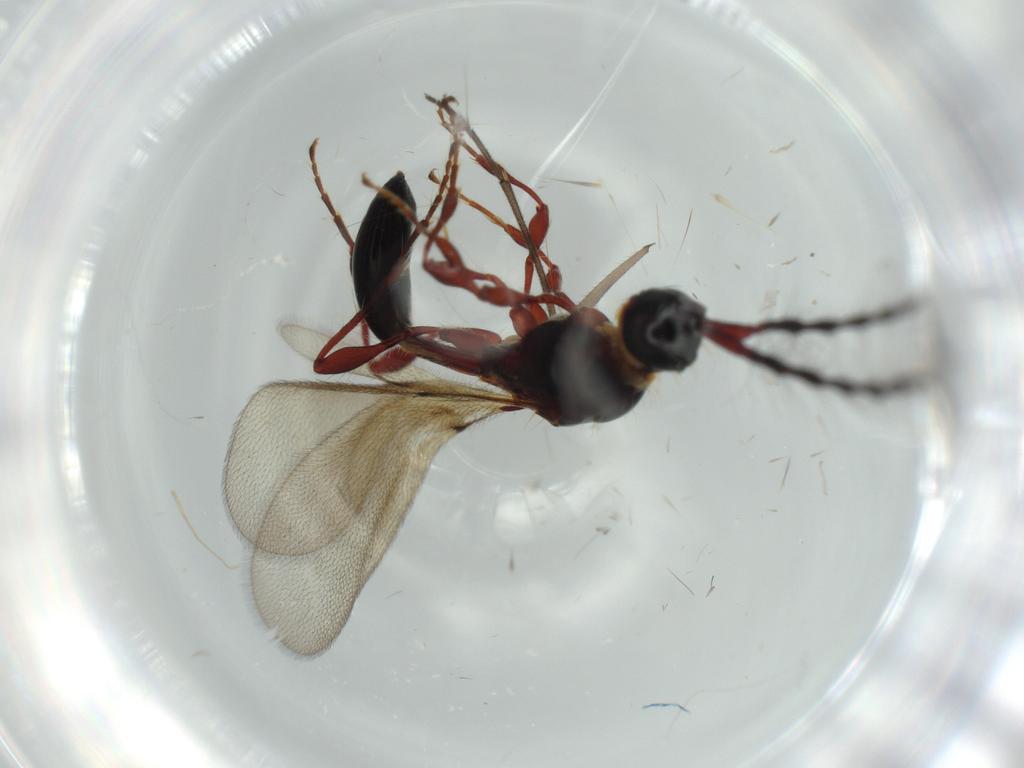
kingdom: Animalia
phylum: Arthropoda
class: Insecta
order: Hymenoptera
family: Diapriidae
